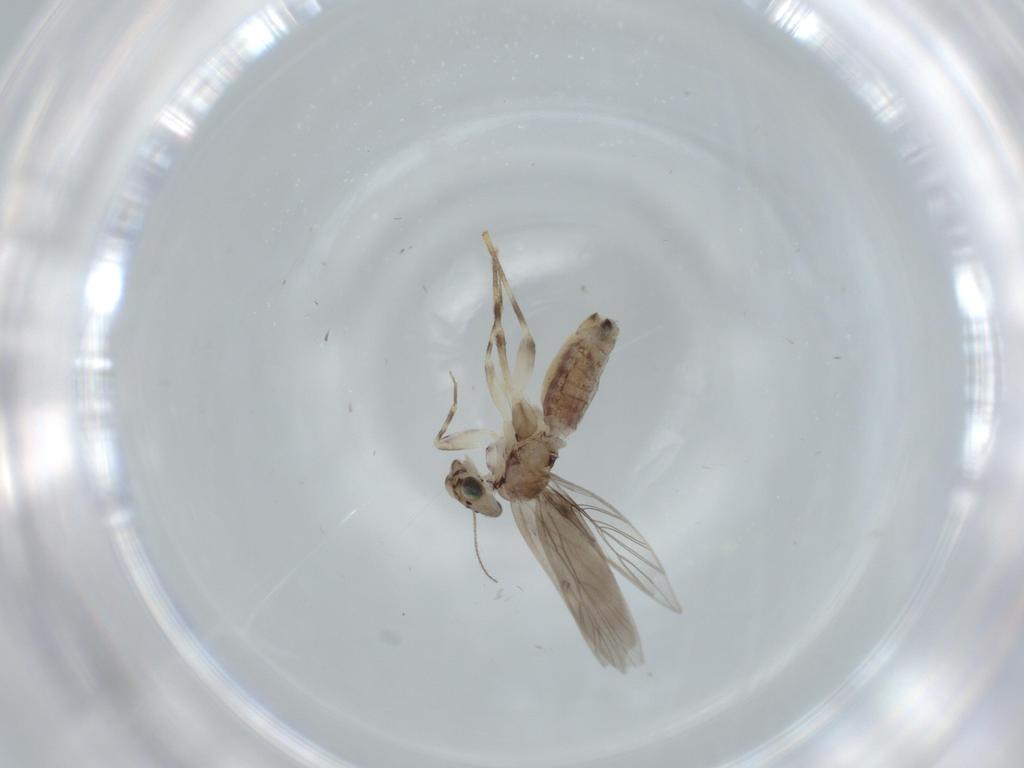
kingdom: Animalia
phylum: Arthropoda
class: Insecta
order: Psocodea
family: Lepidopsocidae
